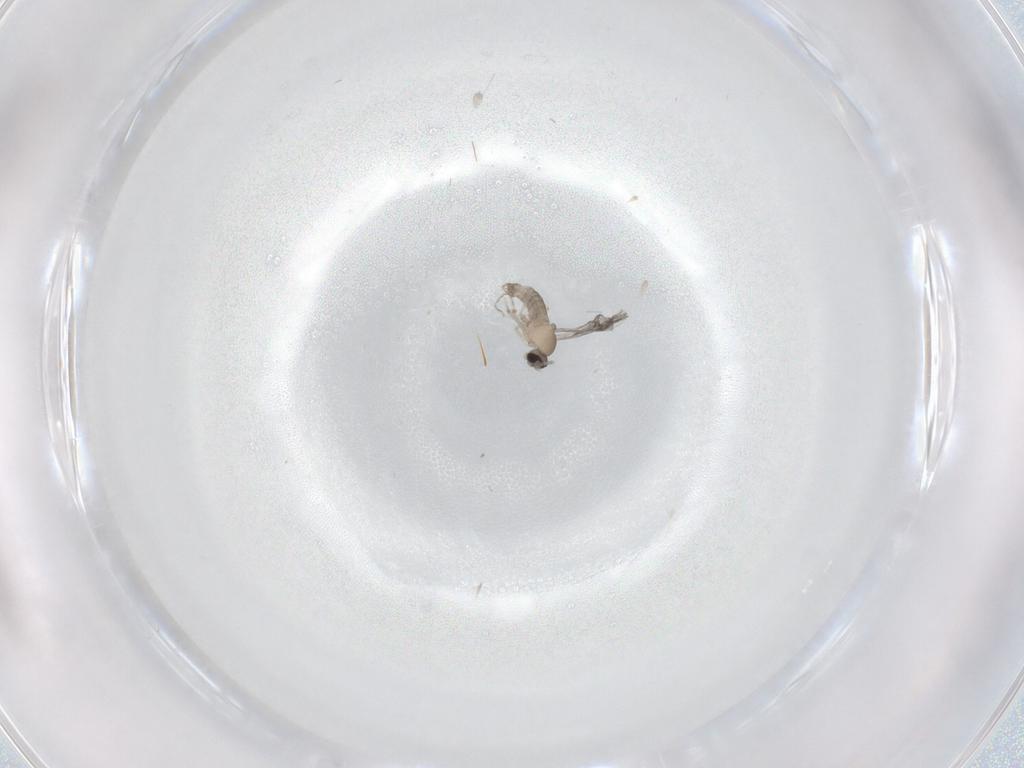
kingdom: Animalia
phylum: Arthropoda
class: Insecta
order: Diptera
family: Cecidomyiidae
